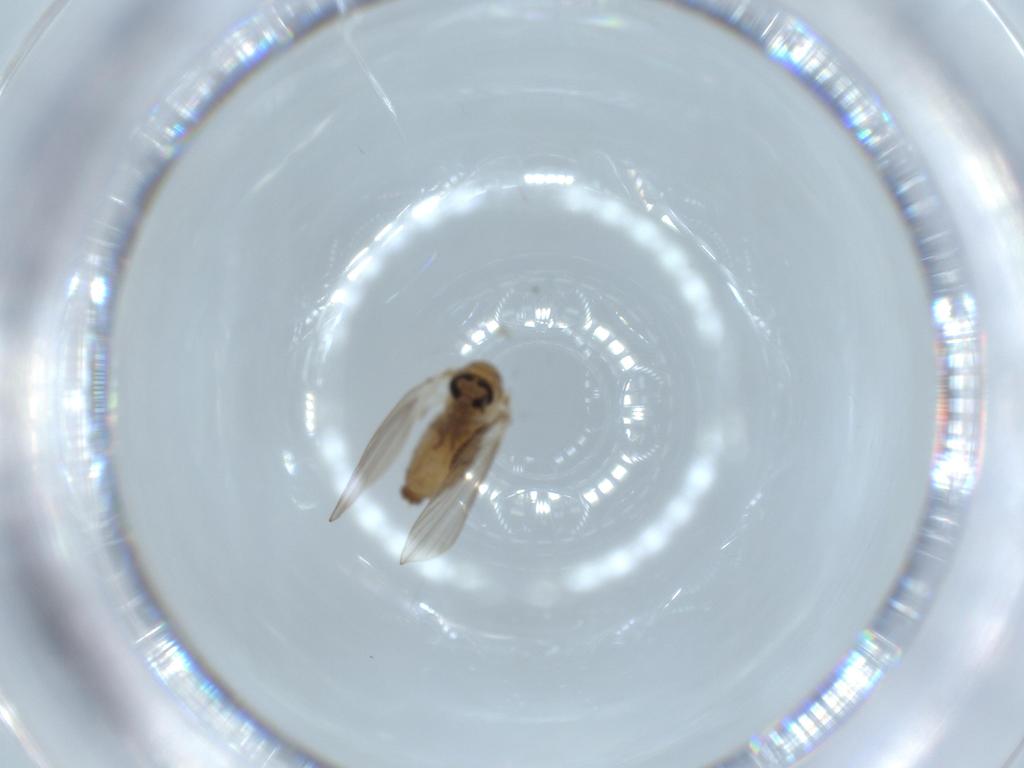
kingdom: Animalia
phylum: Arthropoda
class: Insecta
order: Diptera
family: Psychodidae
